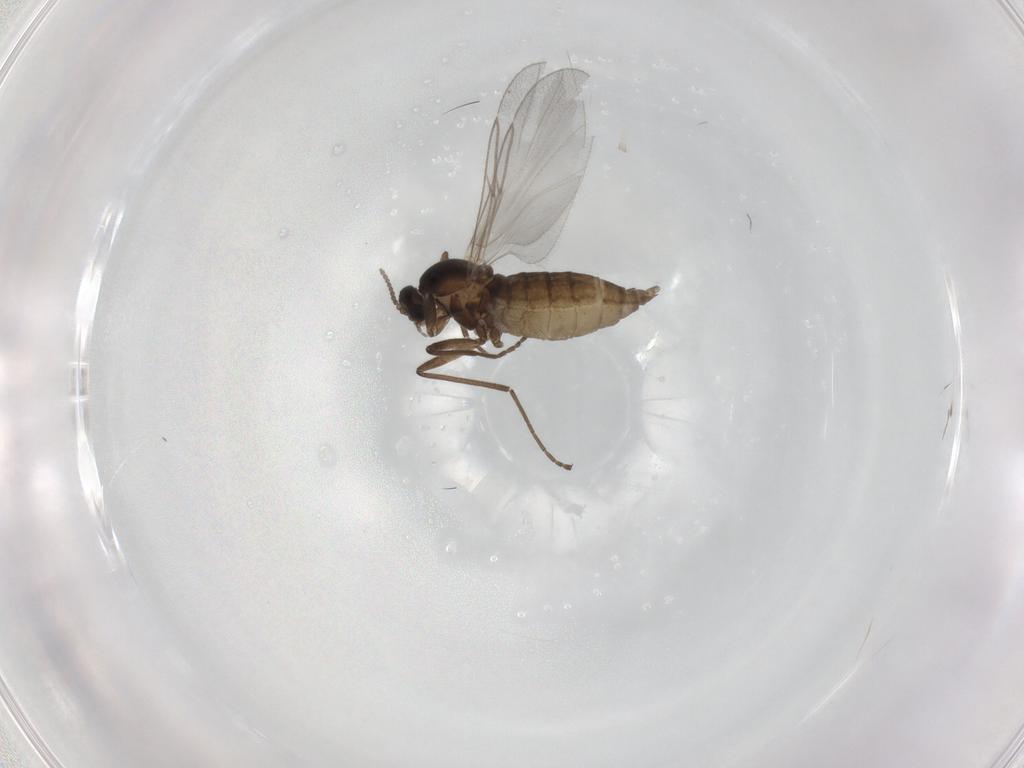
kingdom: Animalia
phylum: Arthropoda
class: Insecta
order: Diptera
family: Cecidomyiidae
